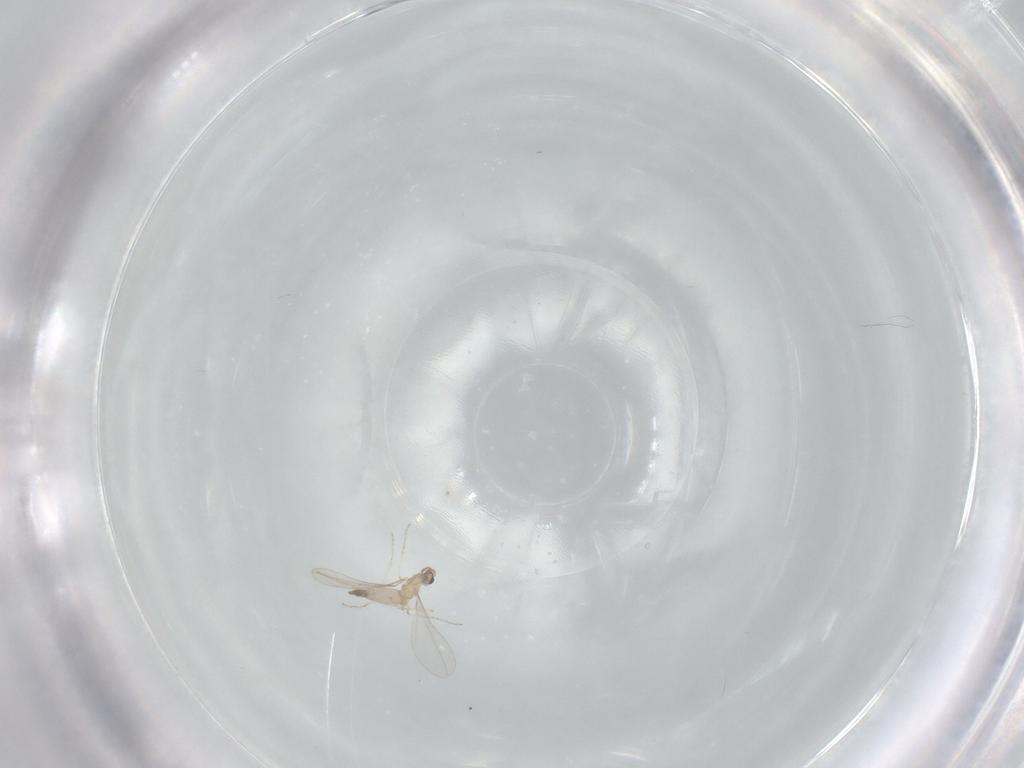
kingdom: Animalia
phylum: Arthropoda
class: Insecta
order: Diptera
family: Cecidomyiidae
